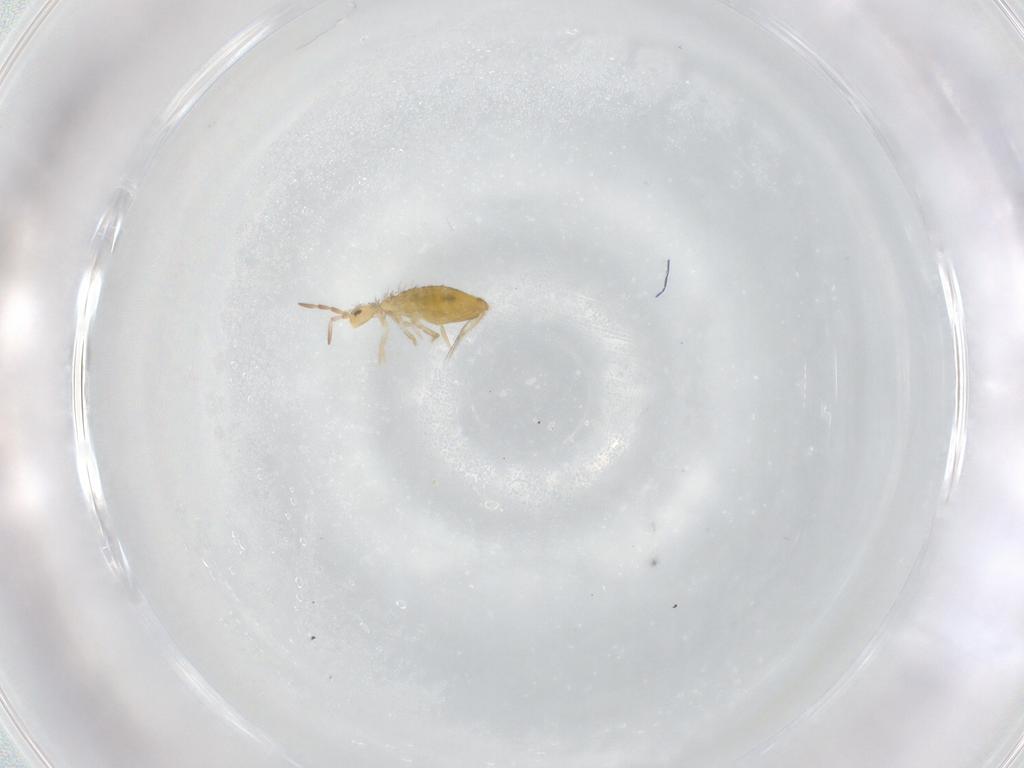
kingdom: Animalia
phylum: Arthropoda
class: Collembola
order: Entomobryomorpha
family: Entomobryidae
